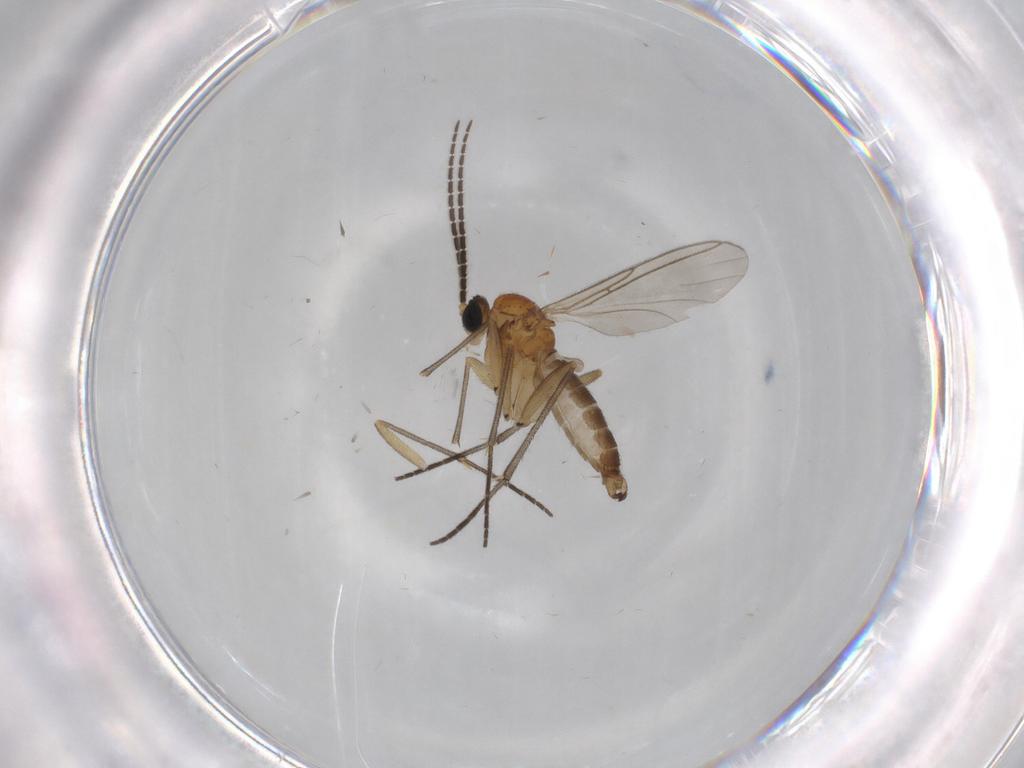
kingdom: Animalia
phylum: Arthropoda
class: Insecta
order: Diptera
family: Sciaridae
